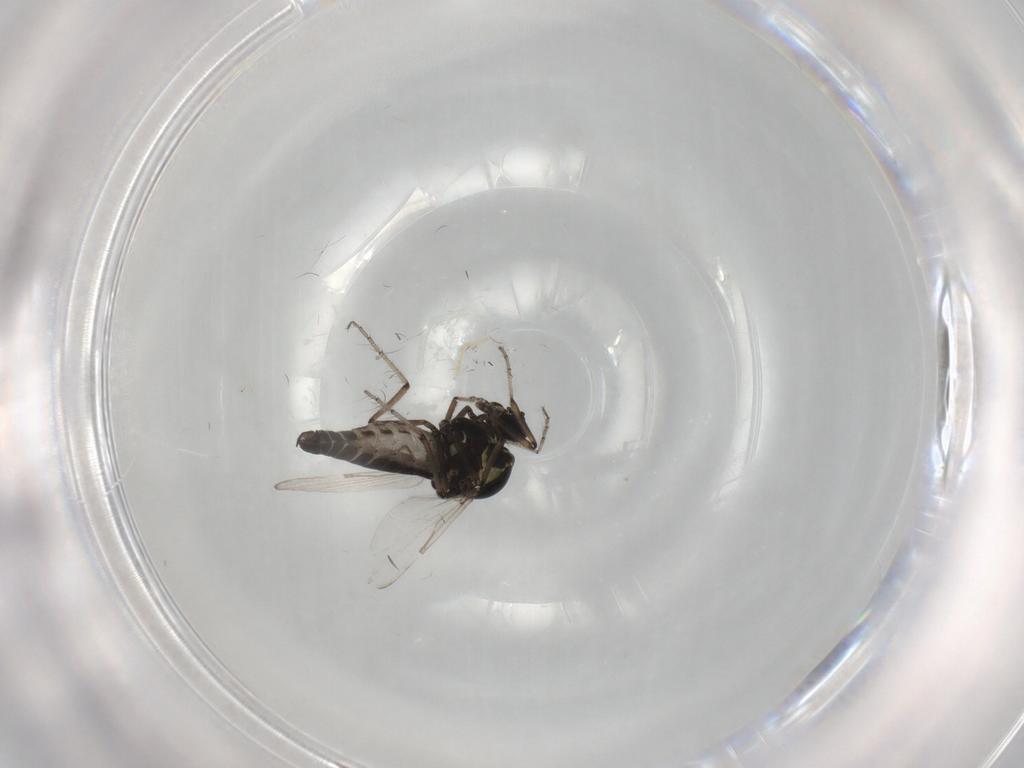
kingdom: Animalia
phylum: Arthropoda
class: Insecta
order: Diptera
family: Ceratopogonidae
